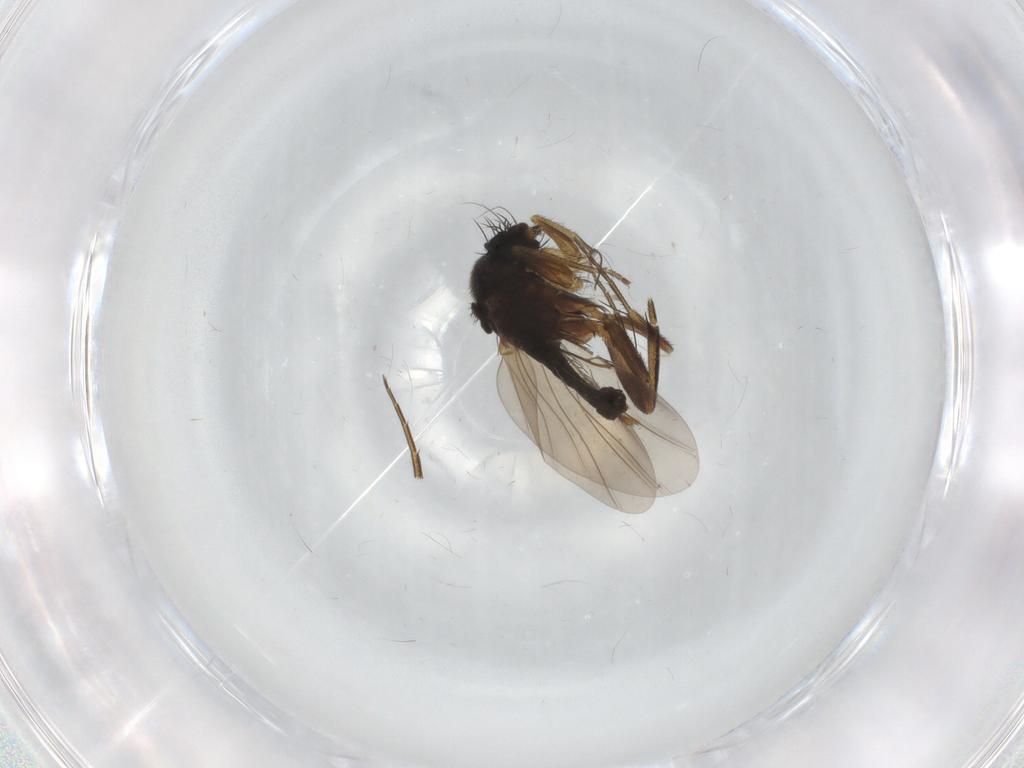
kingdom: Animalia
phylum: Arthropoda
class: Insecta
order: Diptera
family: Phoridae
